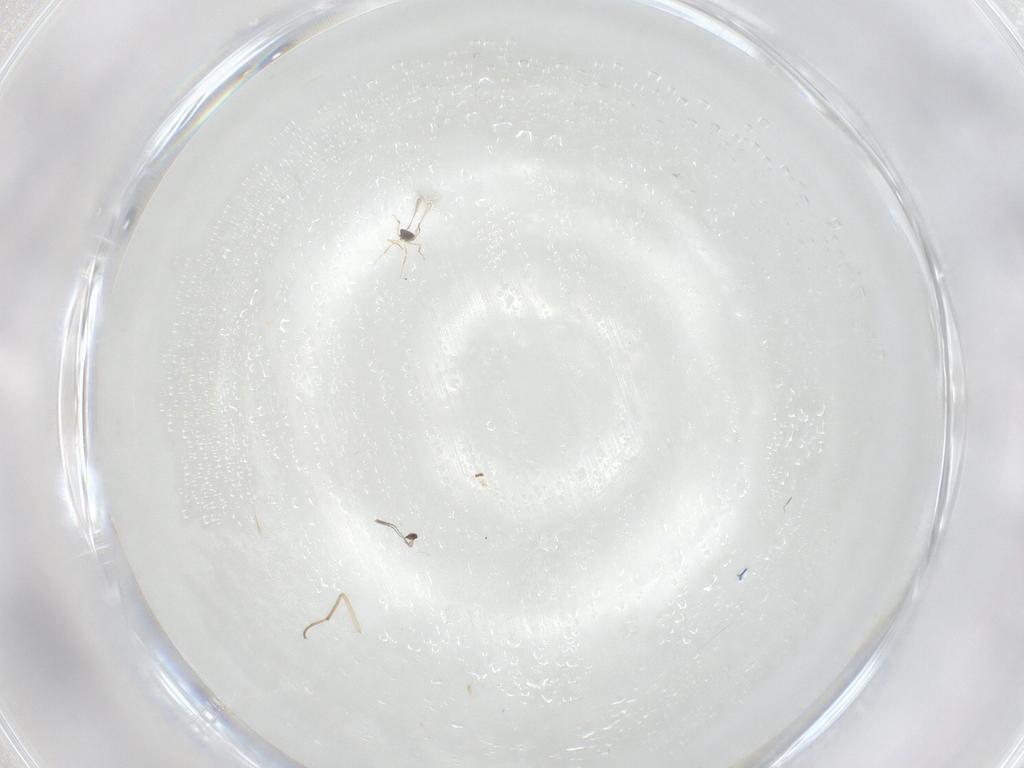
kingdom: Animalia
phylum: Arthropoda
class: Insecta
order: Diptera
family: Chironomidae
